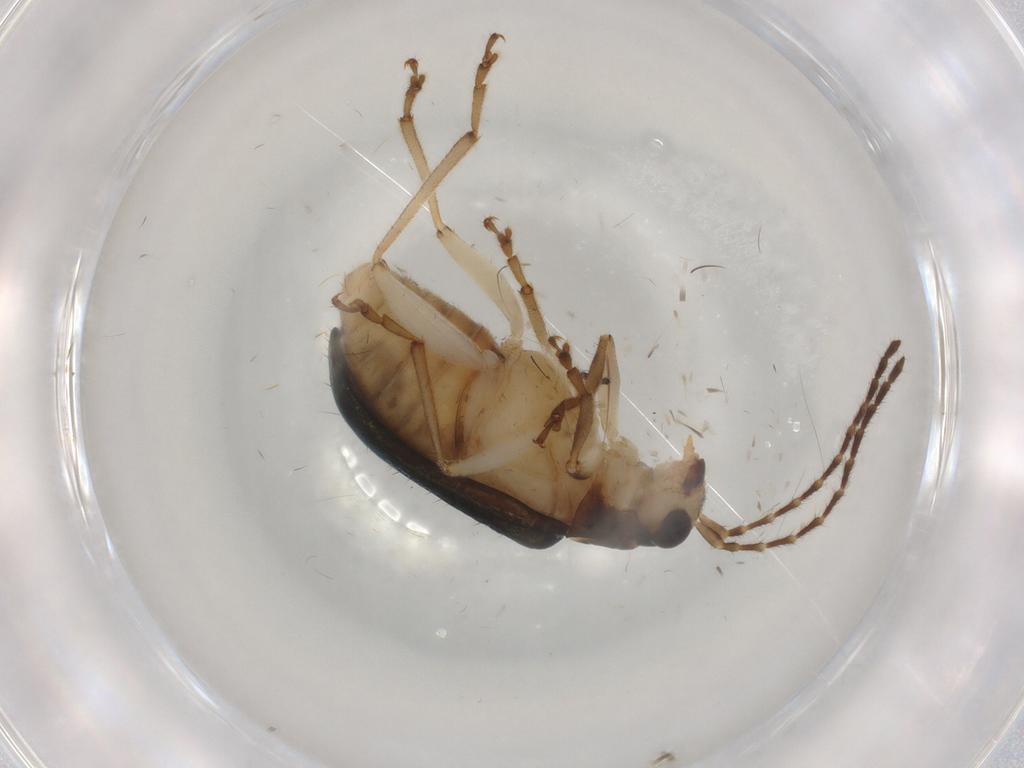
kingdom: Animalia
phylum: Arthropoda
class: Insecta
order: Coleoptera
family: Chrysomelidae
